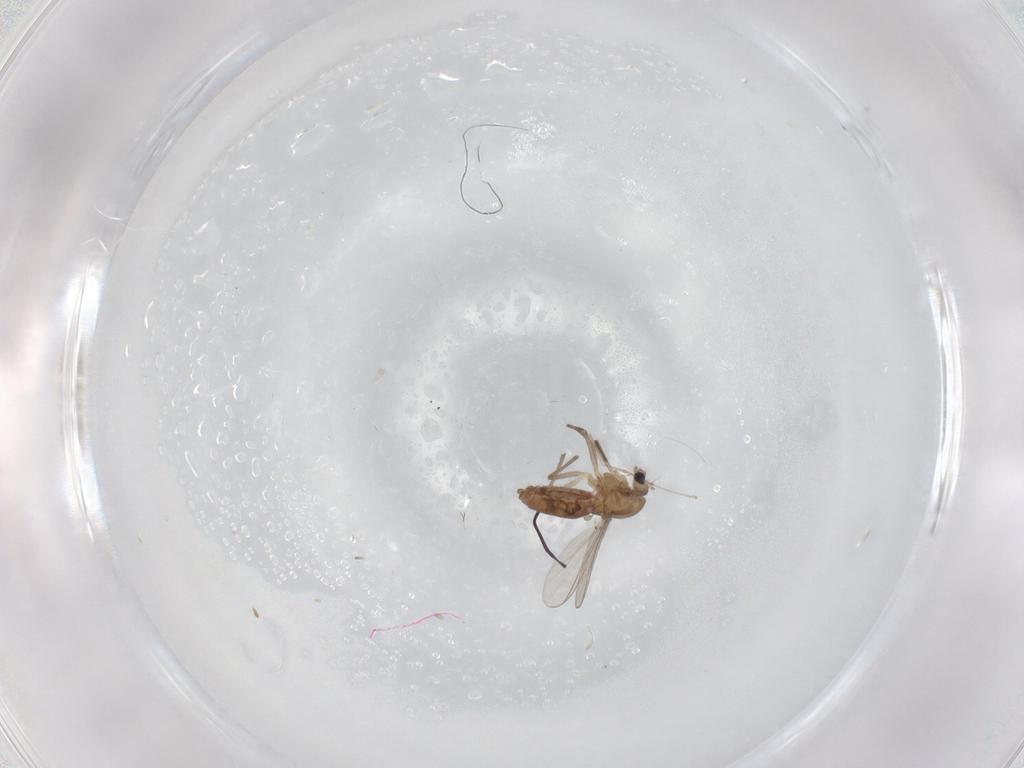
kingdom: Animalia
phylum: Arthropoda
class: Insecta
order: Diptera
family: Chironomidae
